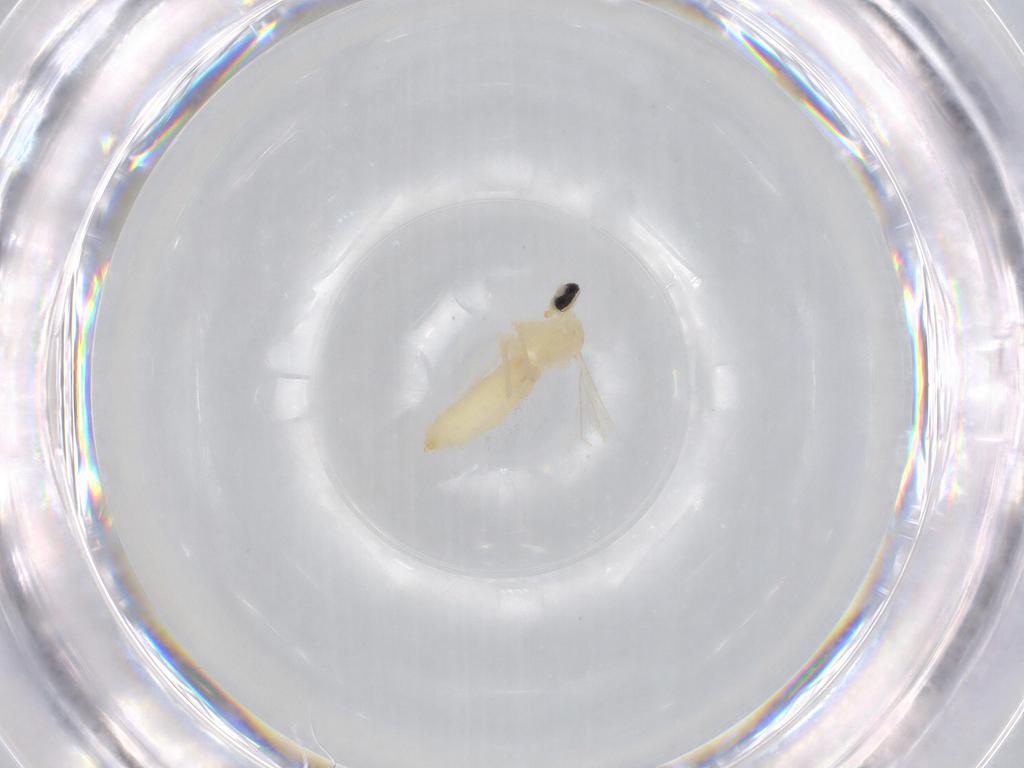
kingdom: Animalia
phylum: Arthropoda
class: Insecta
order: Diptera
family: Cecidomyiidae
